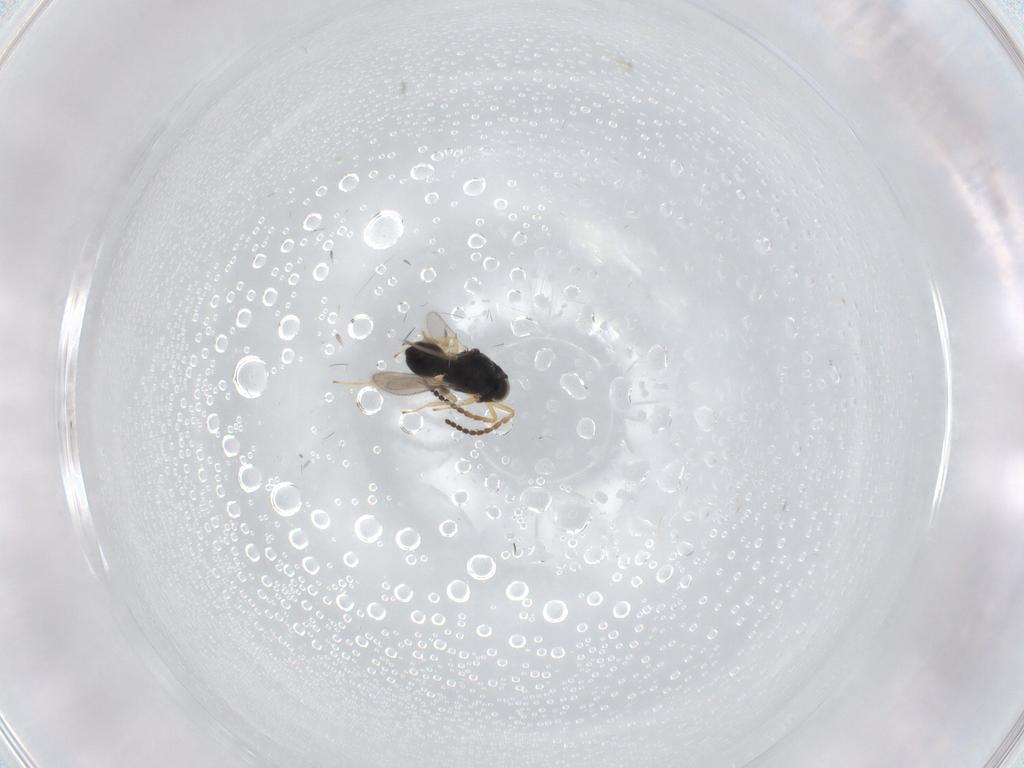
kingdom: Animalia
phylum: Arthropoda
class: Insecta
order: Hymenoptera
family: Scelionidae
